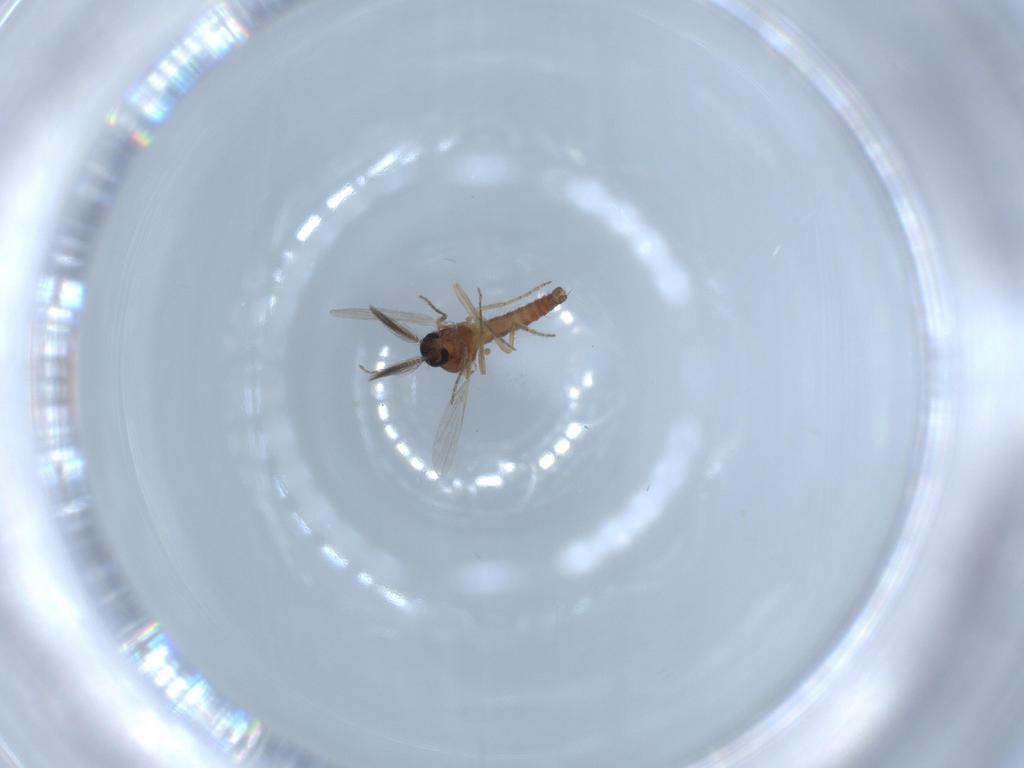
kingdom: Animalia
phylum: Arthropoda
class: Insecta
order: Diptera
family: Ceratopogonidae
